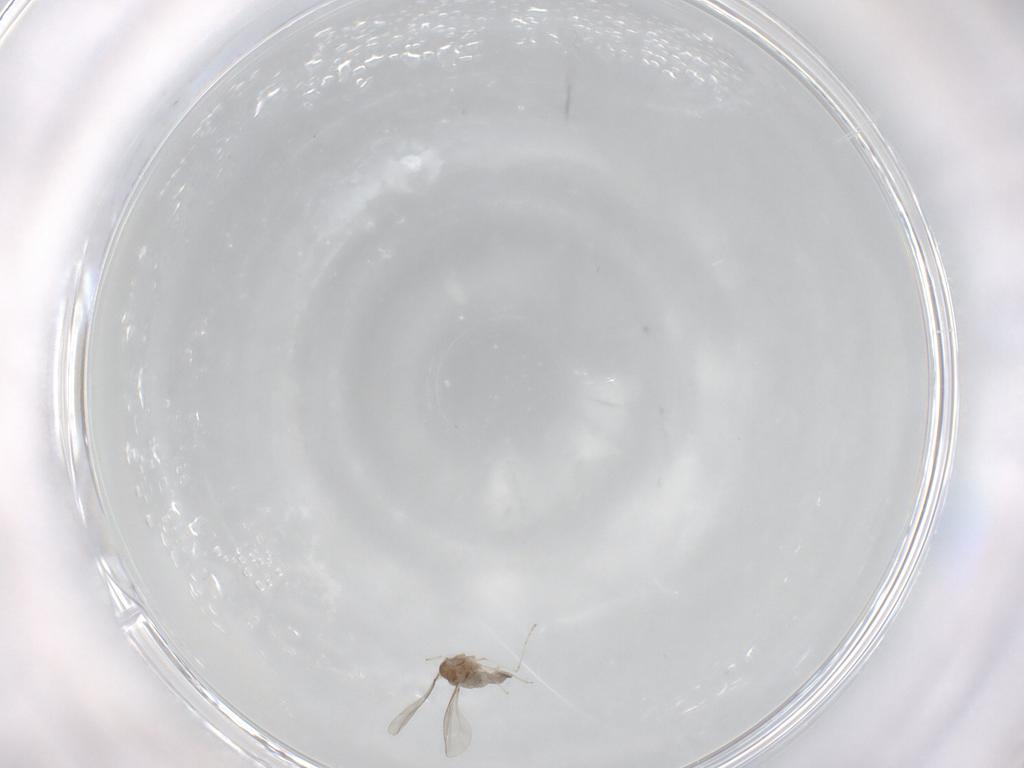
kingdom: Animalia
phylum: Arthropoda
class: Insecta
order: Diptera
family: Cecidomyiidae
